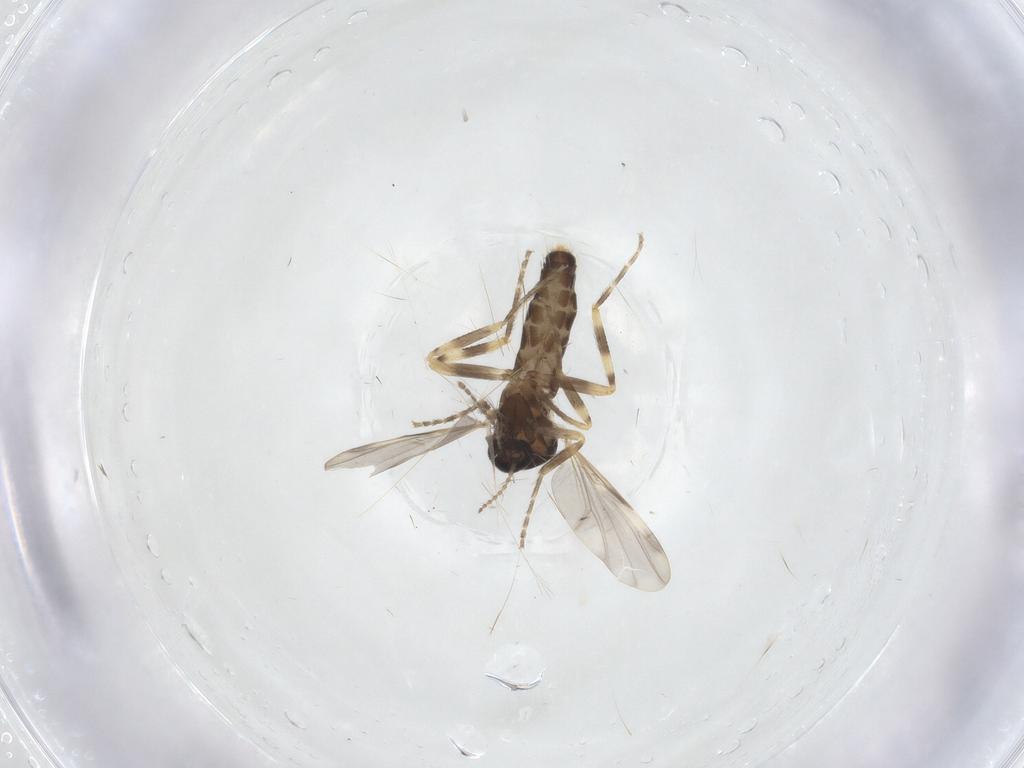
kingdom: Animalia
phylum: Arthropoda
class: Insecta
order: Diptera
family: Ceratopogonidae
